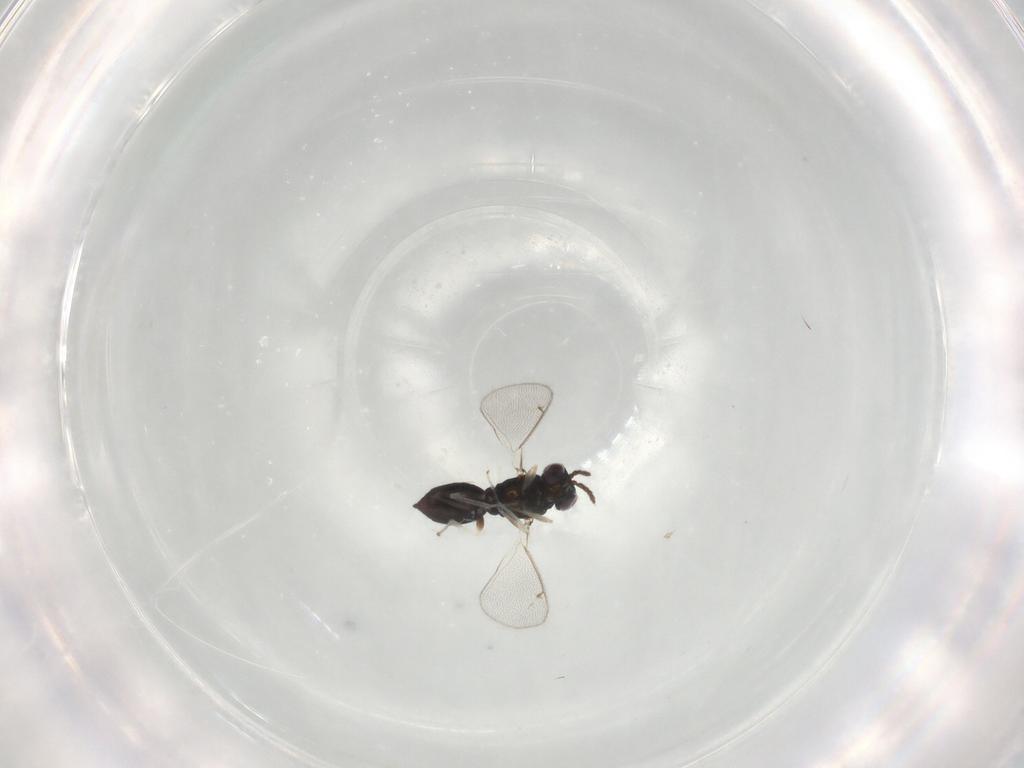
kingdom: Animalia
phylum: Arthropoda
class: Insecta
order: Hymenoptera
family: Eulophidae
